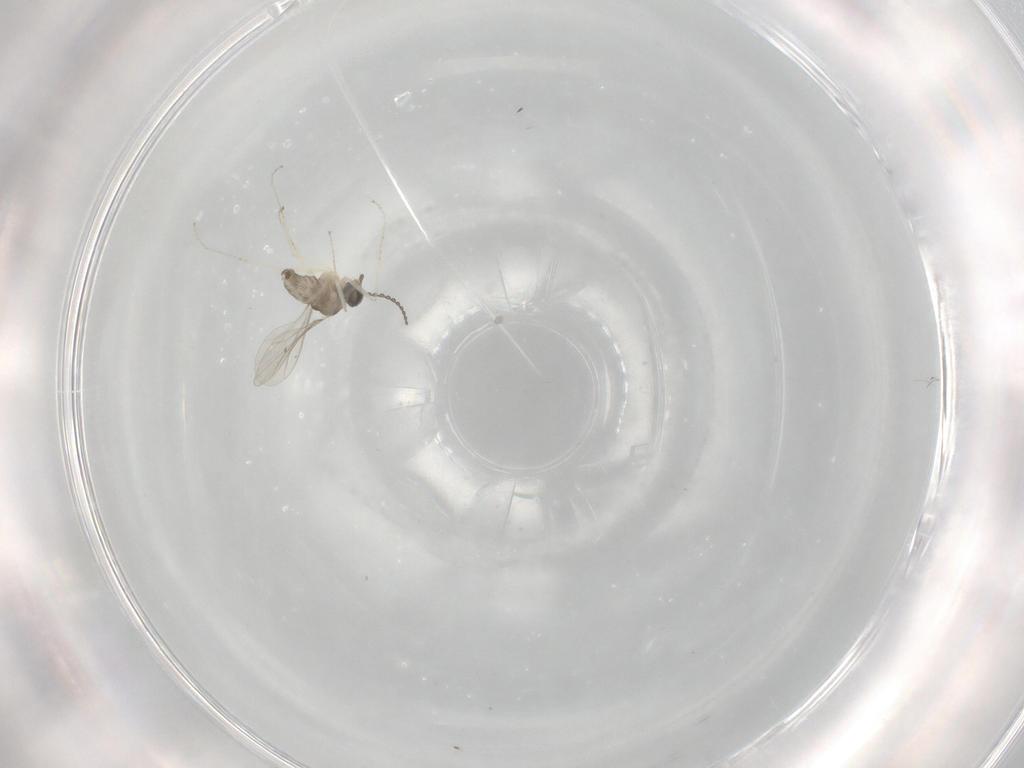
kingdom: Animalia
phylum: Arthropoda
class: Insecta
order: Diptera
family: Cecidomyiidae
